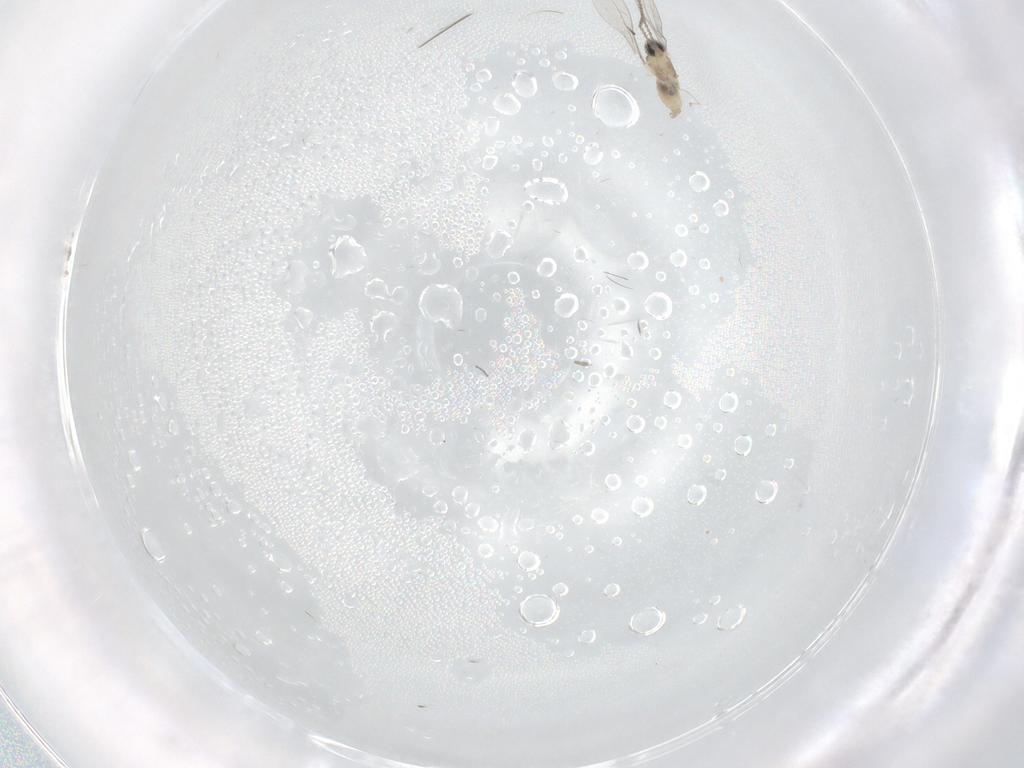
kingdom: Animalia
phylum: Arthropoda
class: Insecta
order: Diptera
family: Cecidomyiidae
